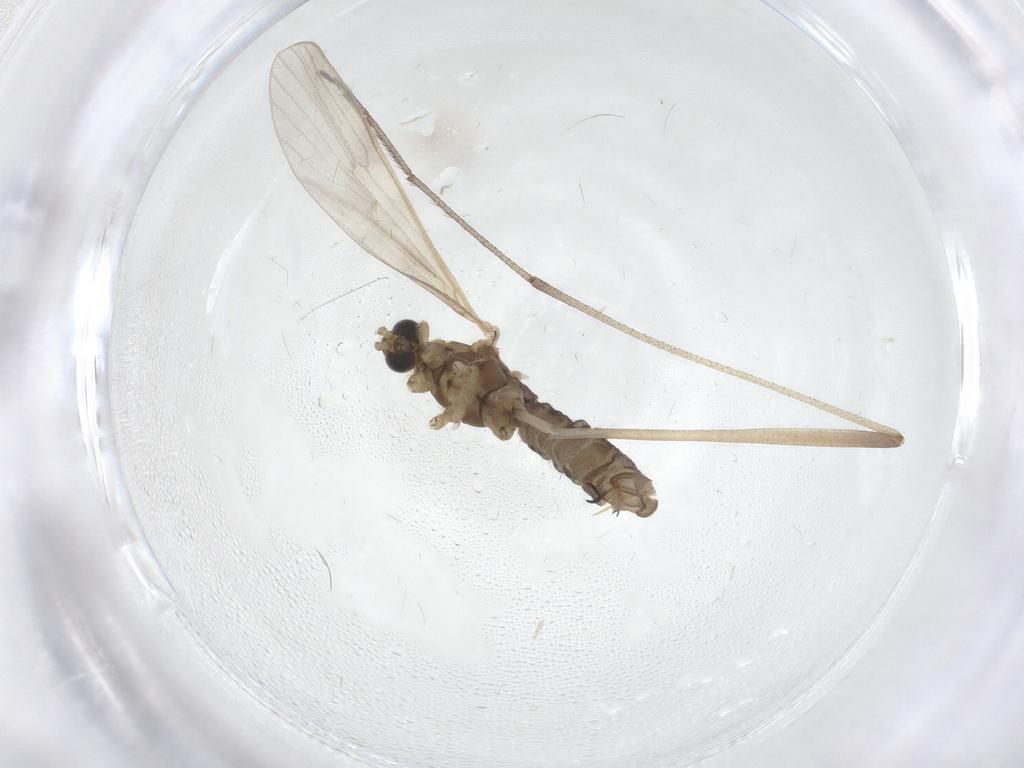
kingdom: Animalia
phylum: Arthropoda
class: Insecta
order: Diptera
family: Limoniidae
